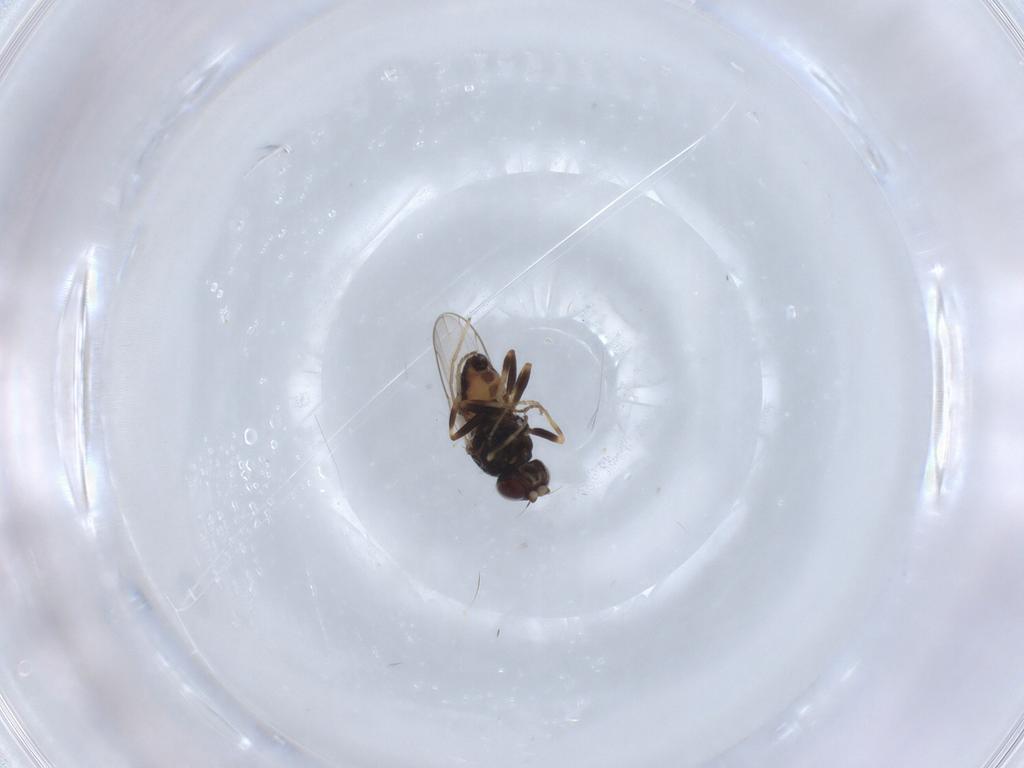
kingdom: Animalia
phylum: Arthropoda
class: Insecta
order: Diptera
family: Chloropidae
